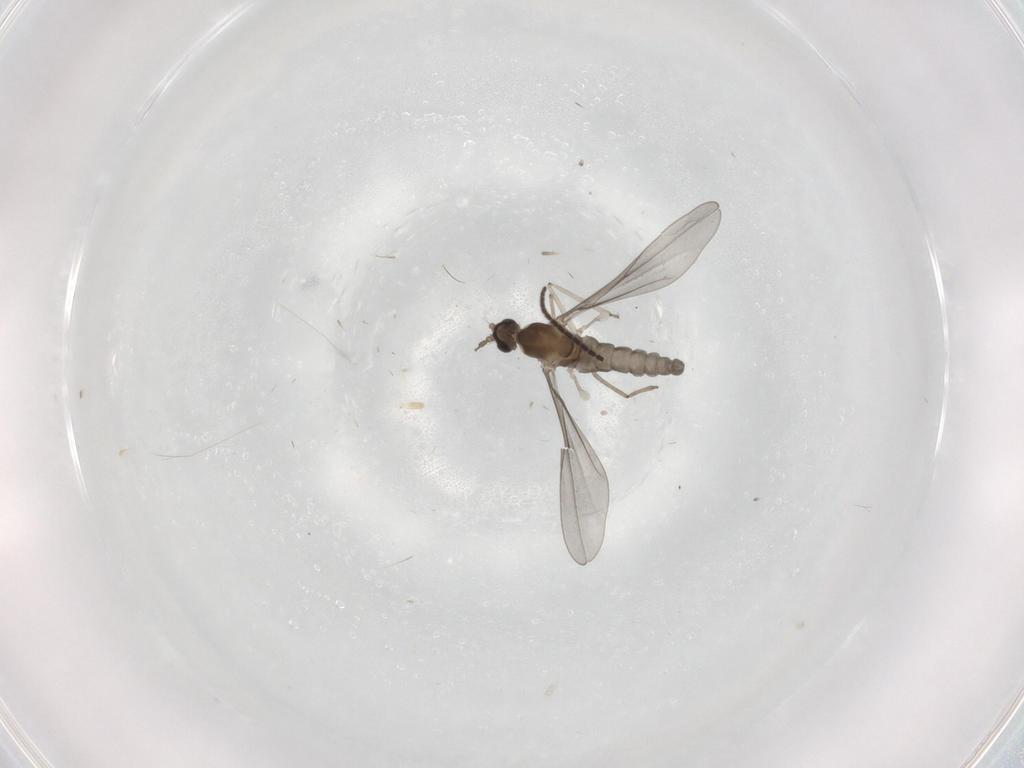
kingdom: Animalia
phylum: Arthropoda
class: Insecta
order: Diptera
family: Cecidomyiidae
